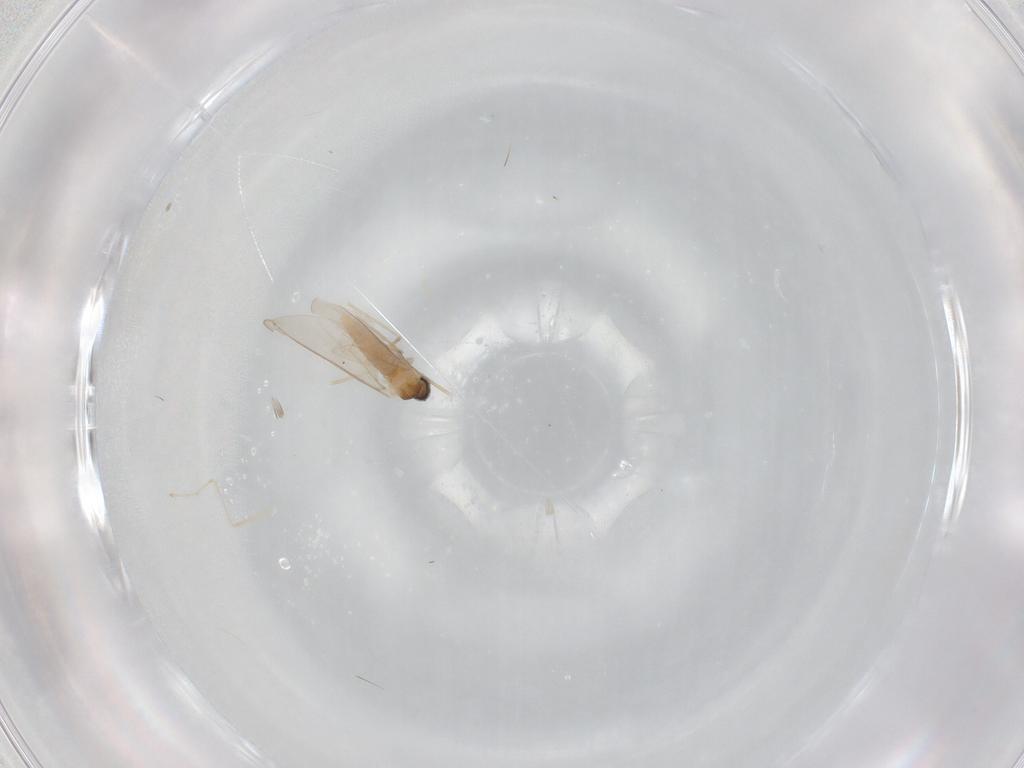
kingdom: Animalia
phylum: Arthropoda
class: Insecta
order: Diptera
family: Cecidomyiidae
